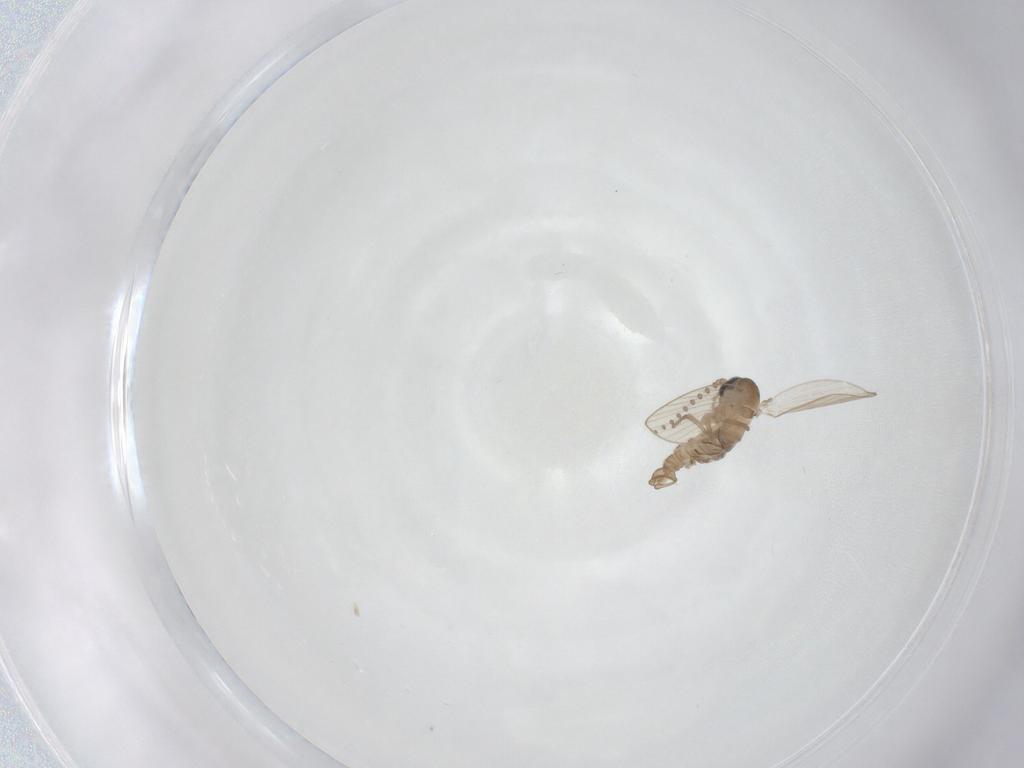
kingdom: Animalia
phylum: Arthropoda
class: Insecta
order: Diptera
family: Psychodidae
